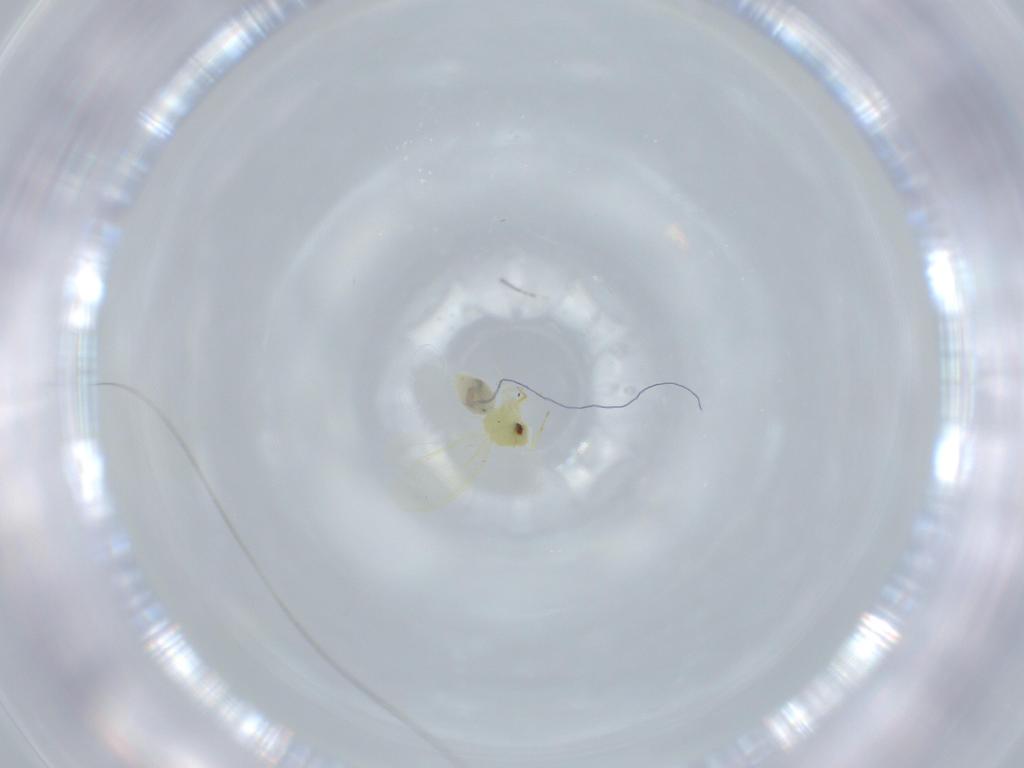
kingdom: Animalia
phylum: Arthropoda
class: Insecta
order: Hemiptera
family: Aleyrodidae
